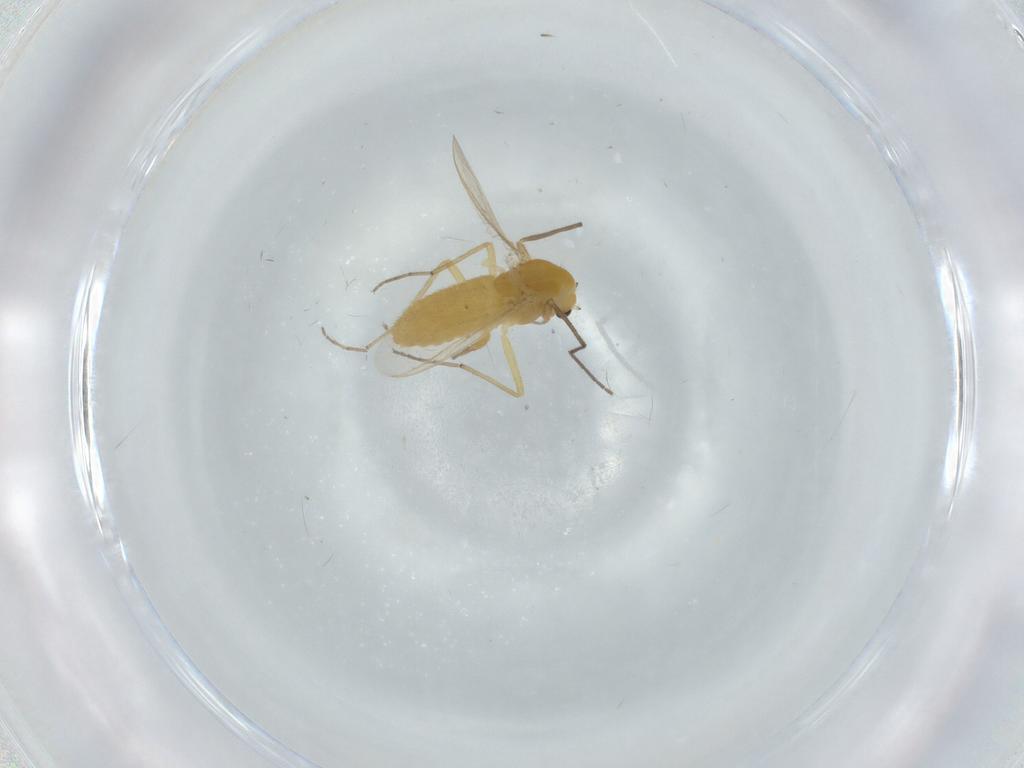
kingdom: Animalia
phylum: Arthropoda
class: Insecta
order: Diptera
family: Chironomidae
